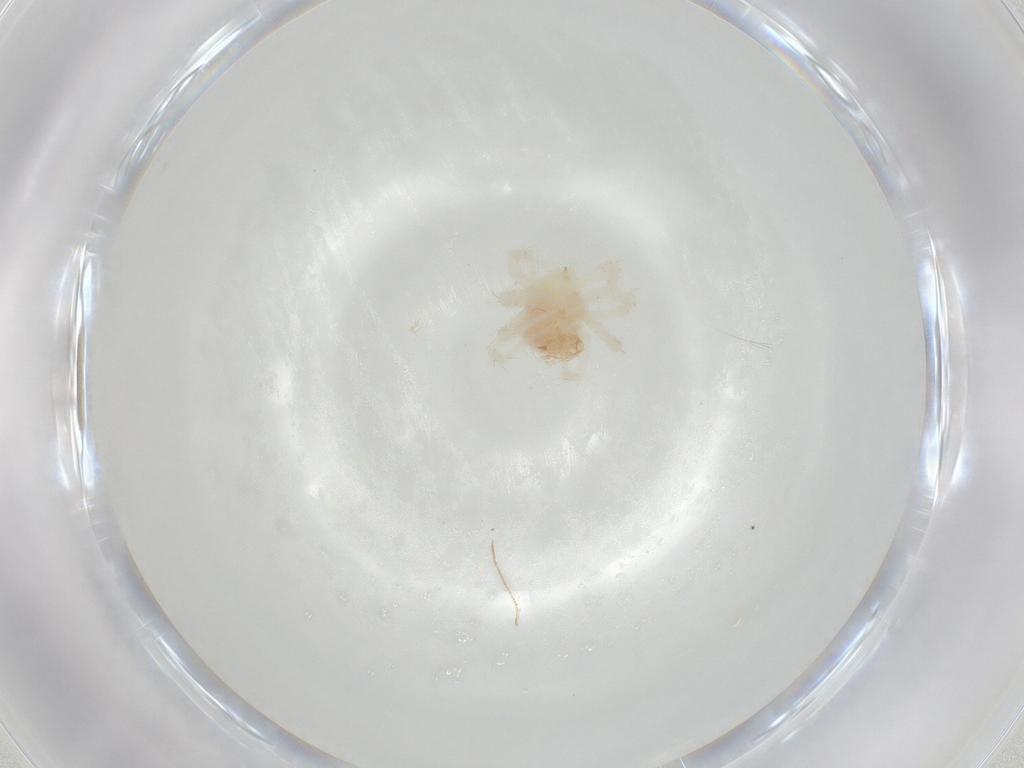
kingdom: Animalia
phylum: Arthropoda
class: Arachnida
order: Trombidiformes
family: Anystidae
